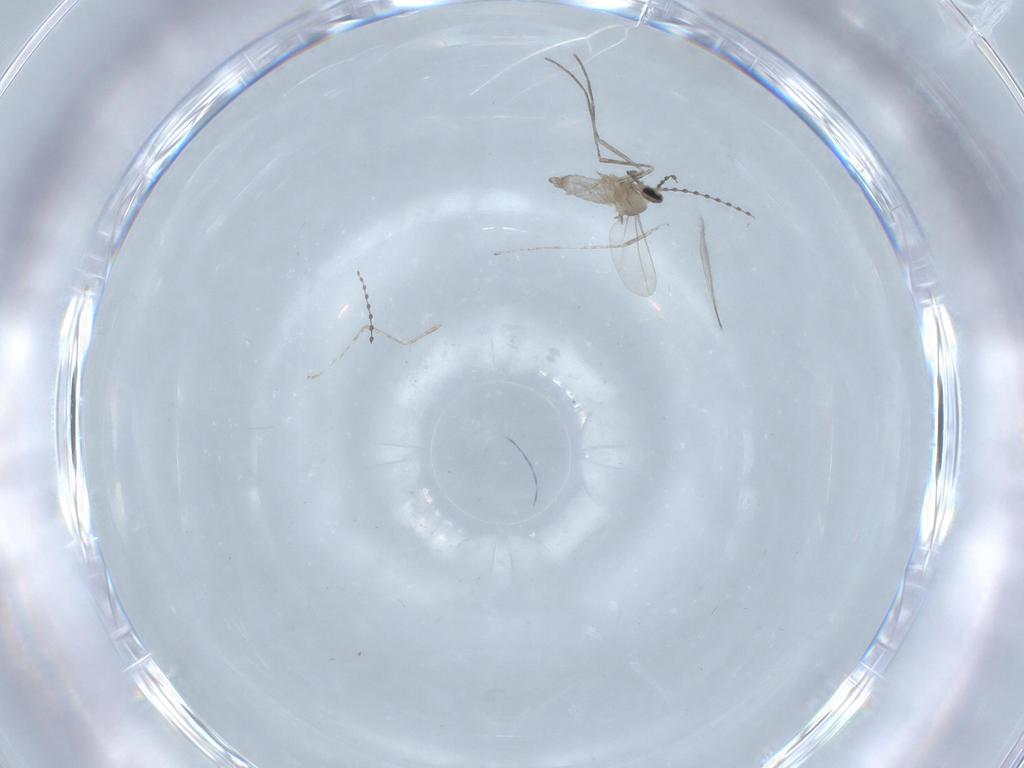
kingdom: Animalia
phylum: Arthropoda
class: Insecta
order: Diptera
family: Cecidomyiidae
